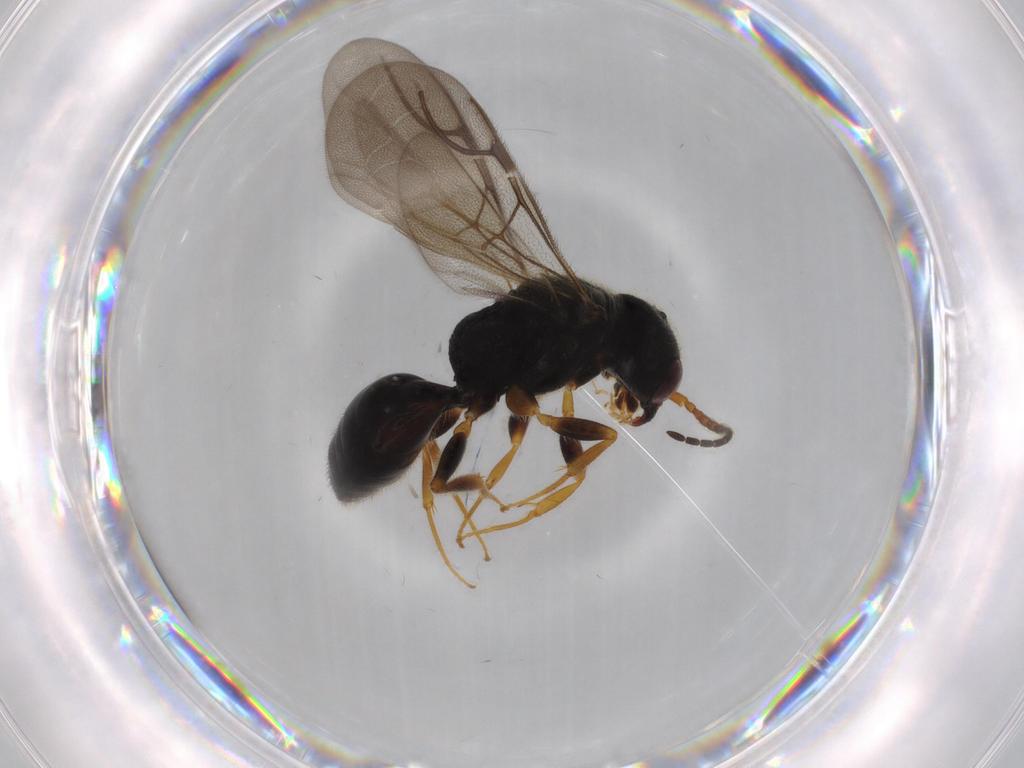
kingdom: Animalia
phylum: Arthropoda
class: Insecta
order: Hymenoptera
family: Bethylidae
